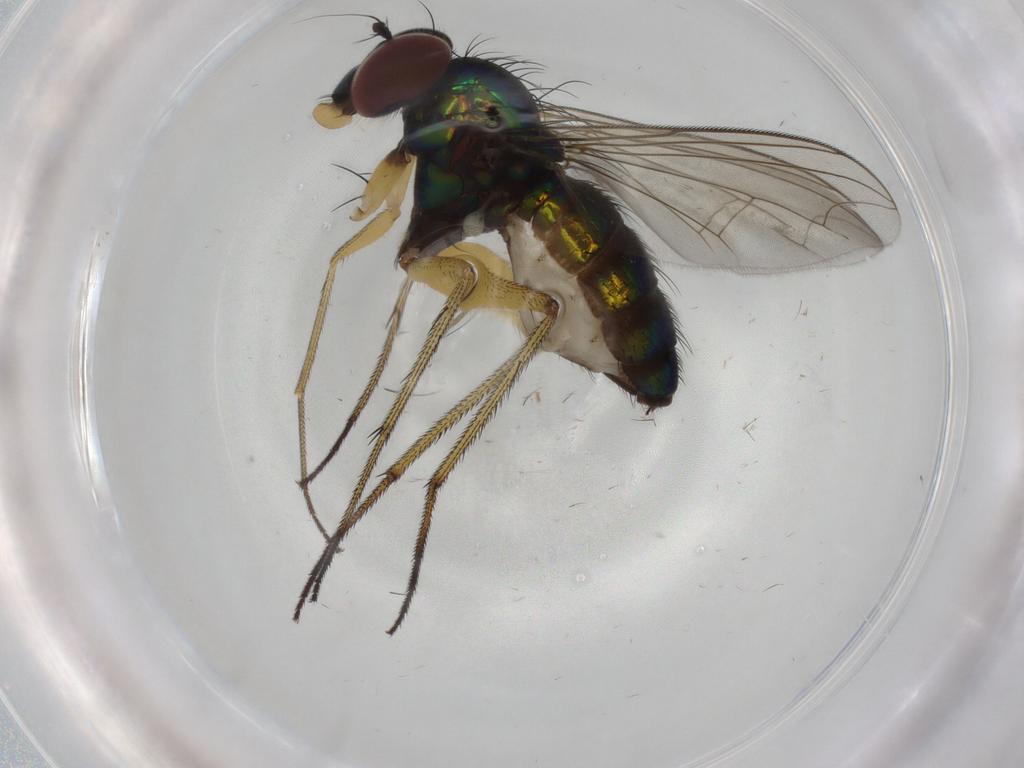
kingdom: Animalia
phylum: Arthropoda
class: Insecta
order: Diptera
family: Dolichopodidae
